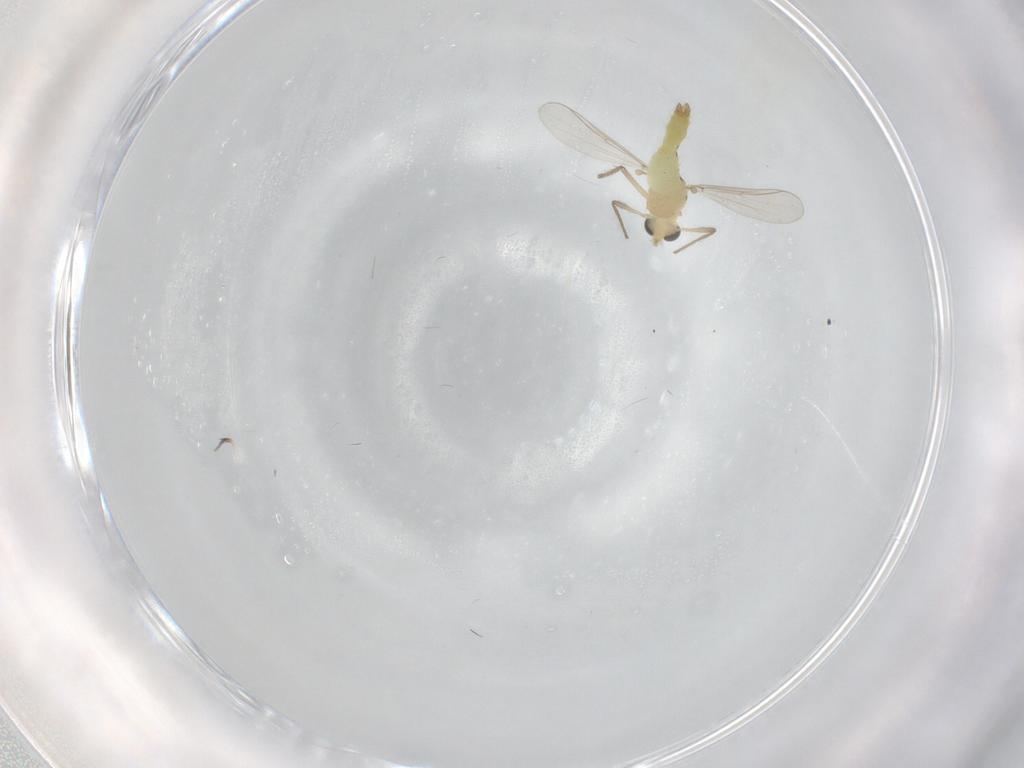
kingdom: Animalia
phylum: Arthropoda
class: Insecta
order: Diptera
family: Chironomidae
